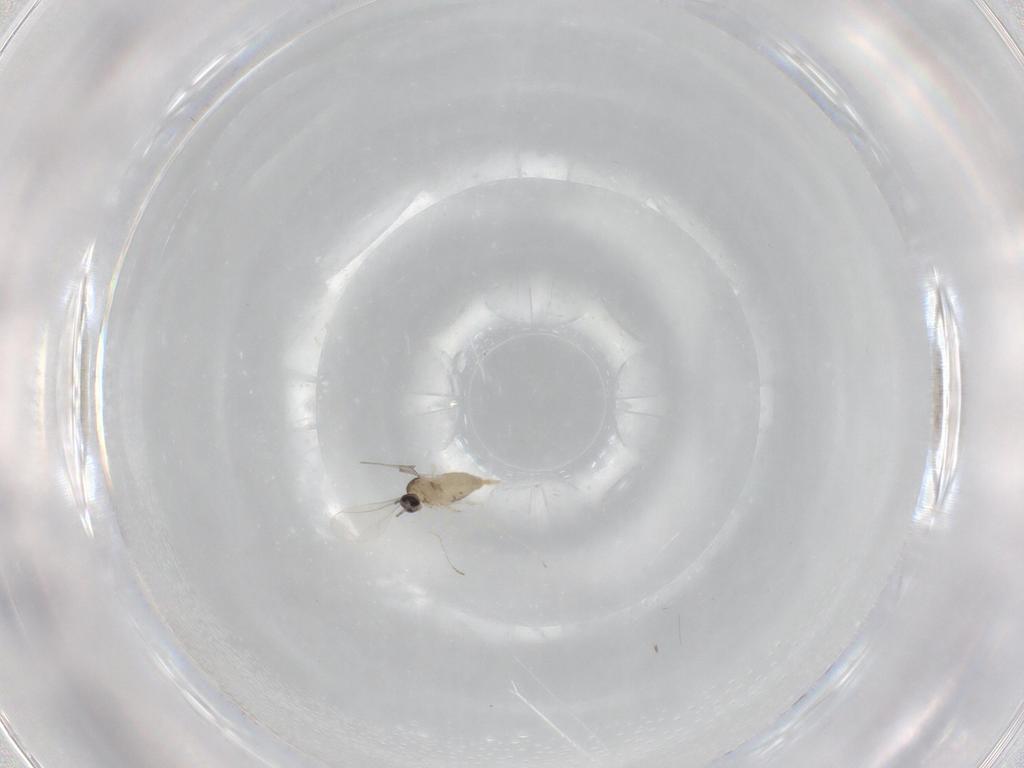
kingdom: Animalia
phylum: Arthropoda
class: Insecta
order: Diptera
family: Cecidomyiidae
